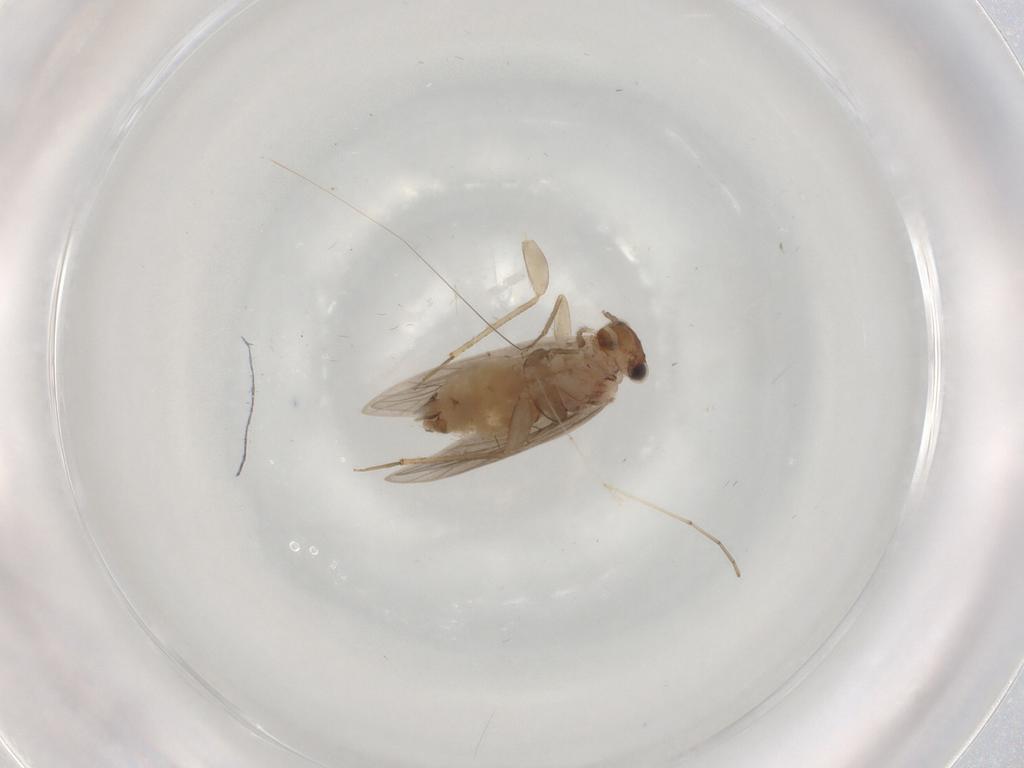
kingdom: Animalia
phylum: Arthropoda
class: Insecta
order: Psocodea
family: Lepidopsocidae
